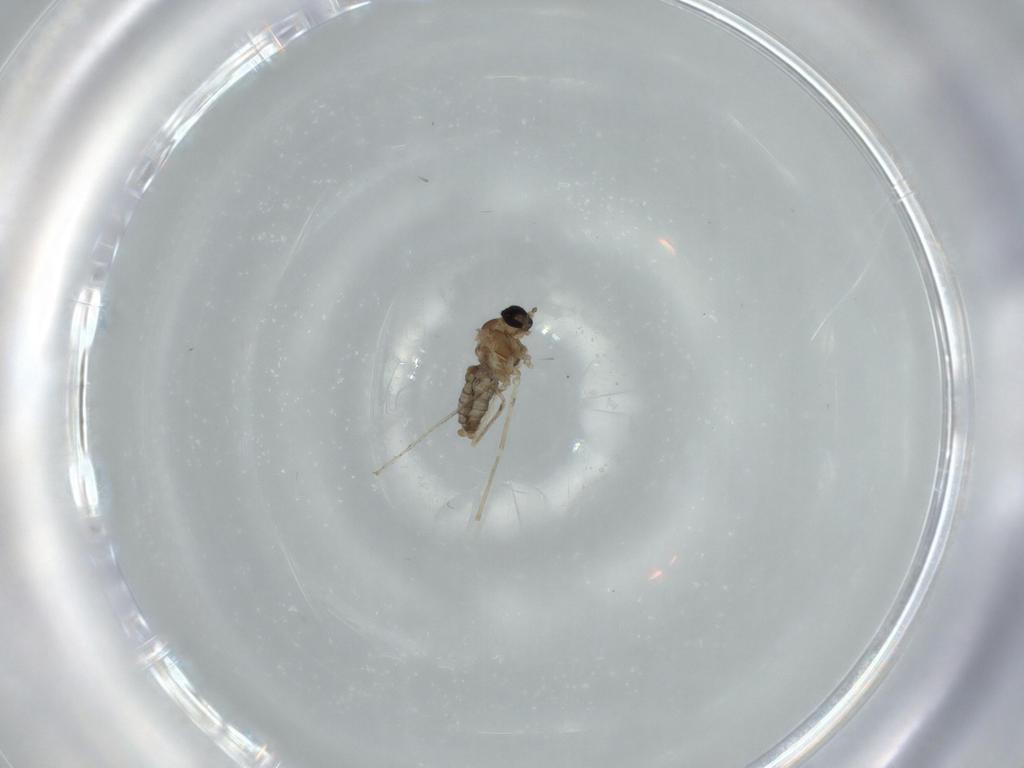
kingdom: Animalia
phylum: Arthropoda
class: Insecta
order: Diptera
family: Cecidomyiidae
